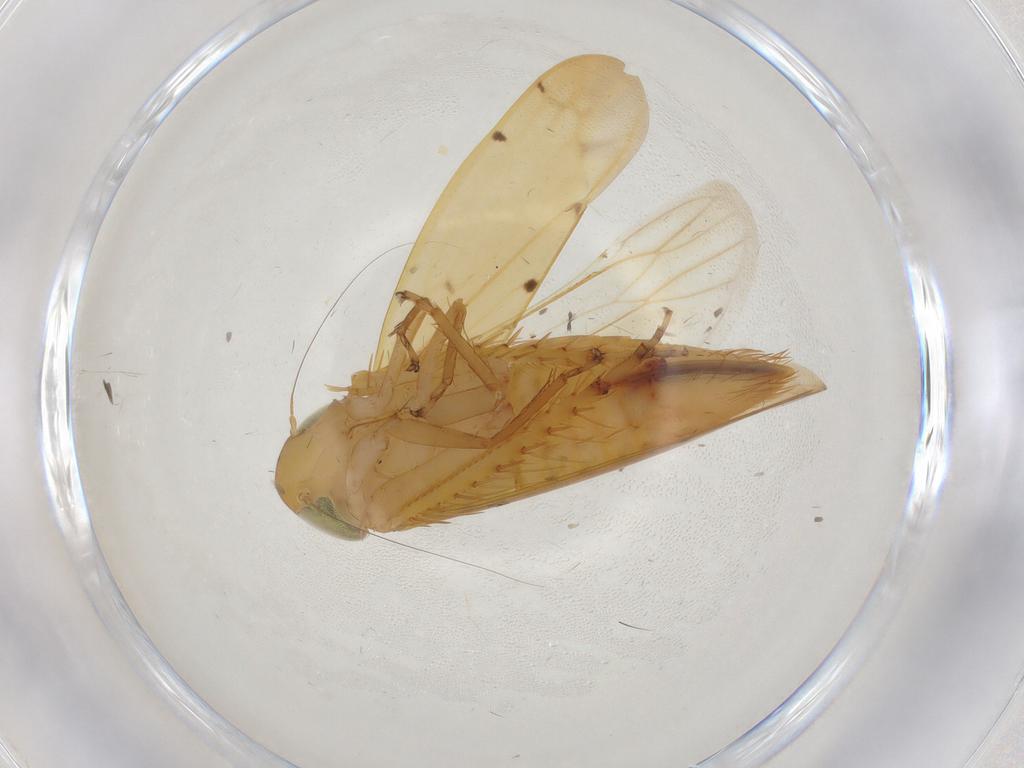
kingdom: Animalia
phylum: Arthropoda
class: Insecta
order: Hemiptera
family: Cicadellidae
